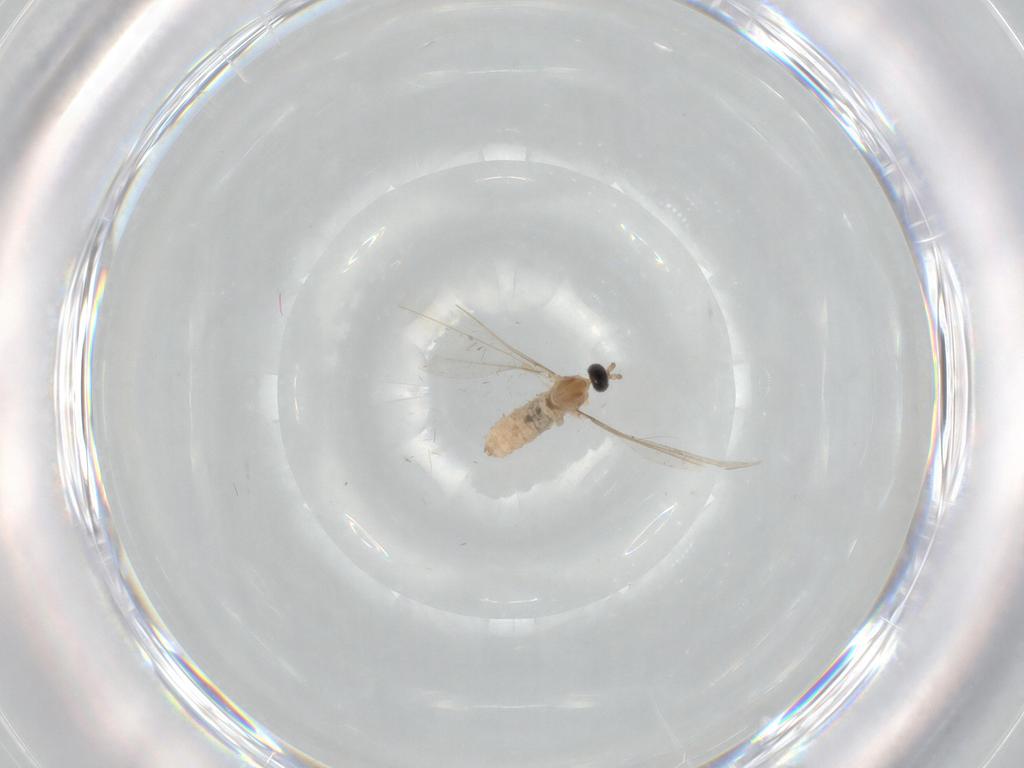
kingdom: Animalia
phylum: Arthropoda
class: Insecta
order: Diptera
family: Cecidomyiidae
